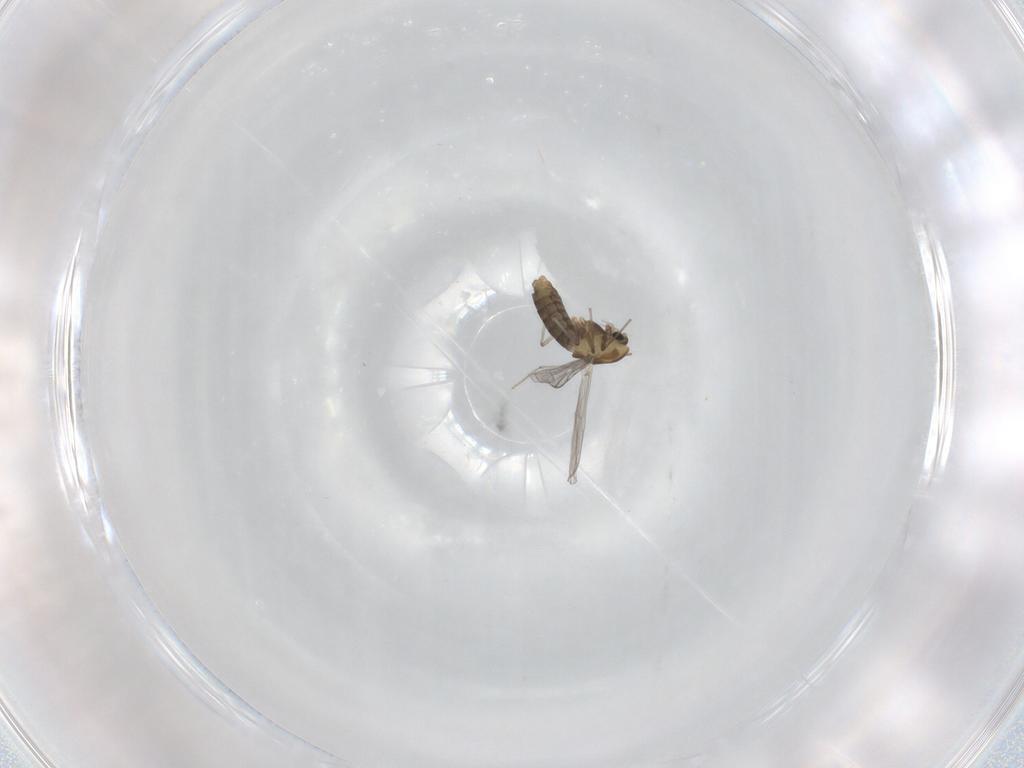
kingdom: Animalia
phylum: Arthropoda
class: Insecta
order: Diptera
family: Chironomidae
